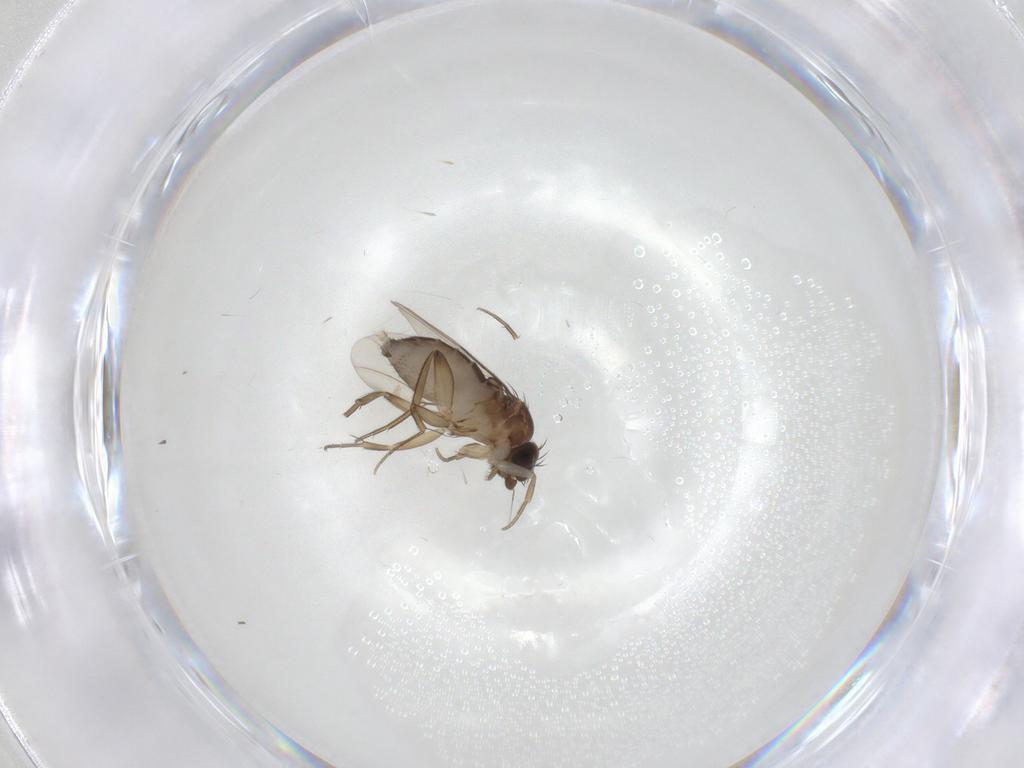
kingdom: Animalia
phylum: Arthropoda
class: Insecta
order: Diptera
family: Phoridae
